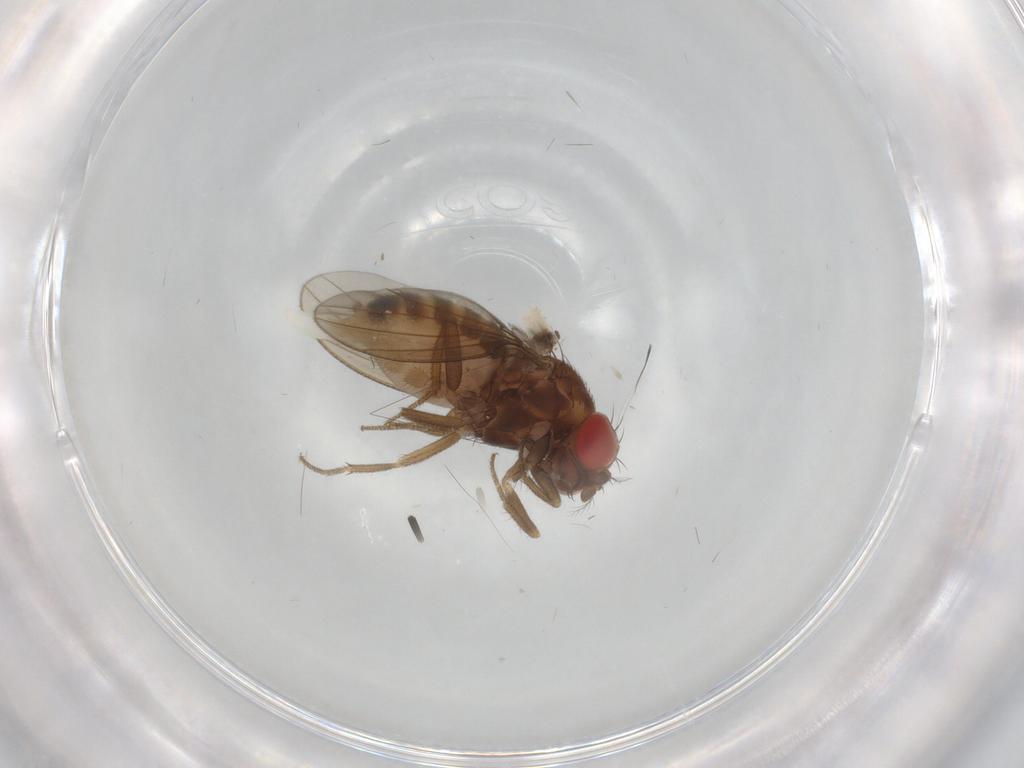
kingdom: Animalia
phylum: Arthropoda
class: Insecta
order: Diptera
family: Drosophilidae
